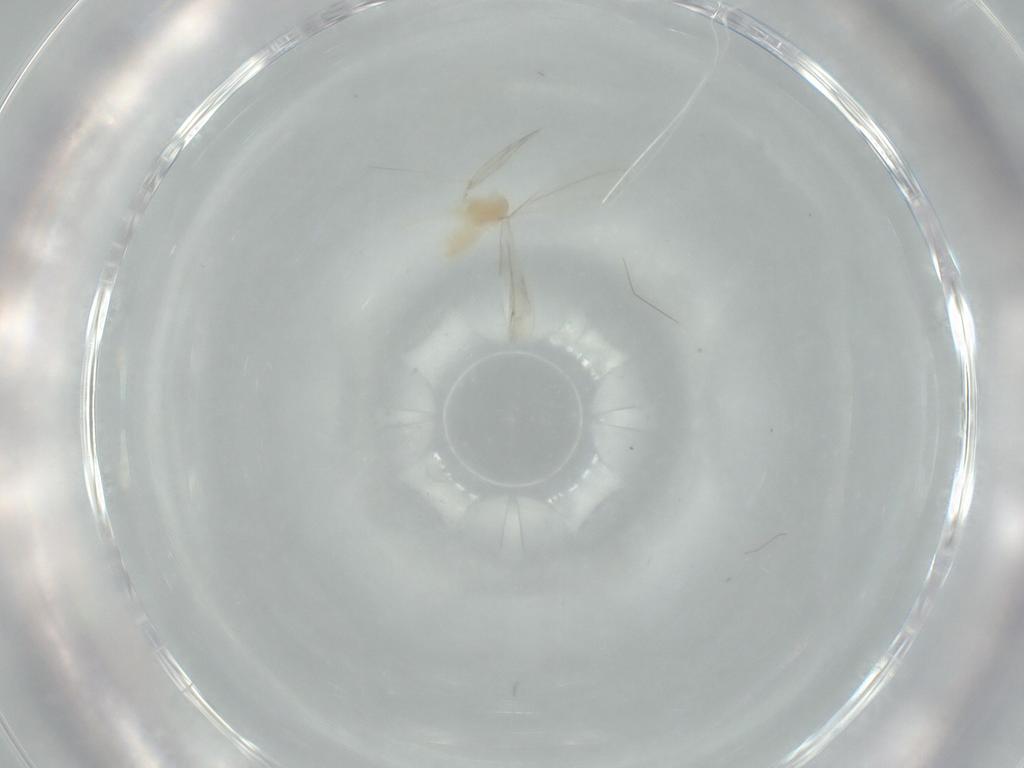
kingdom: Animalia
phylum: Arthropoda
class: Insecta
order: Diptera
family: Cecidomyiidae
